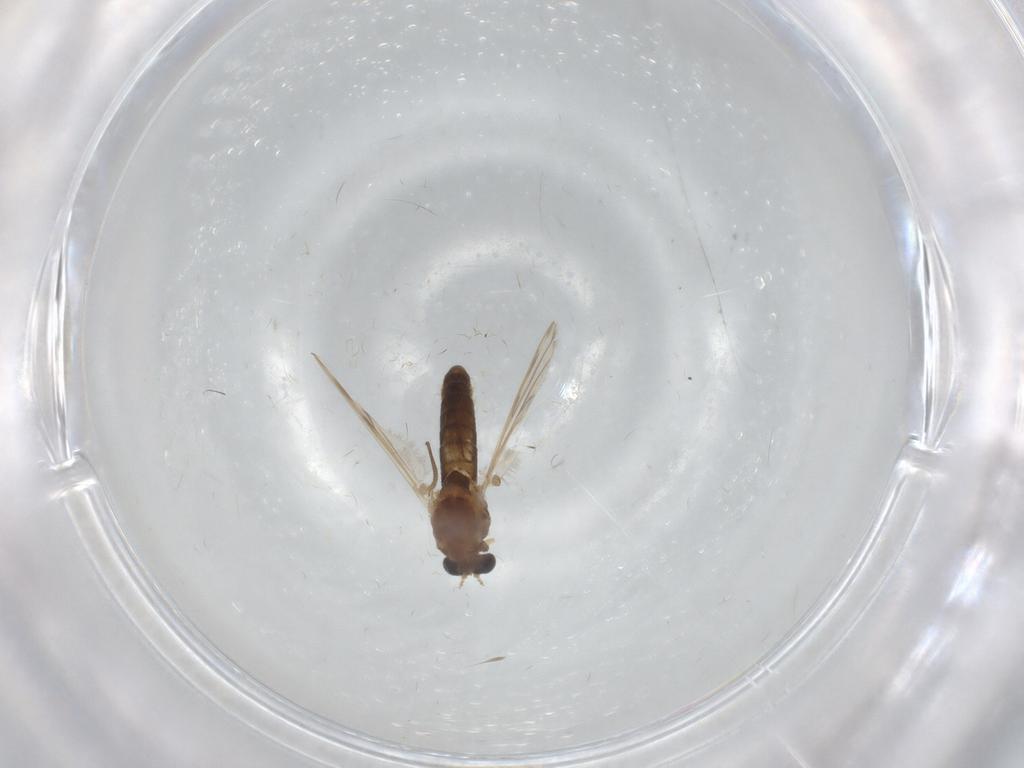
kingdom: Animalia
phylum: Arthropoda
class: Insecta
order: Diptera
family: Chironomidae
